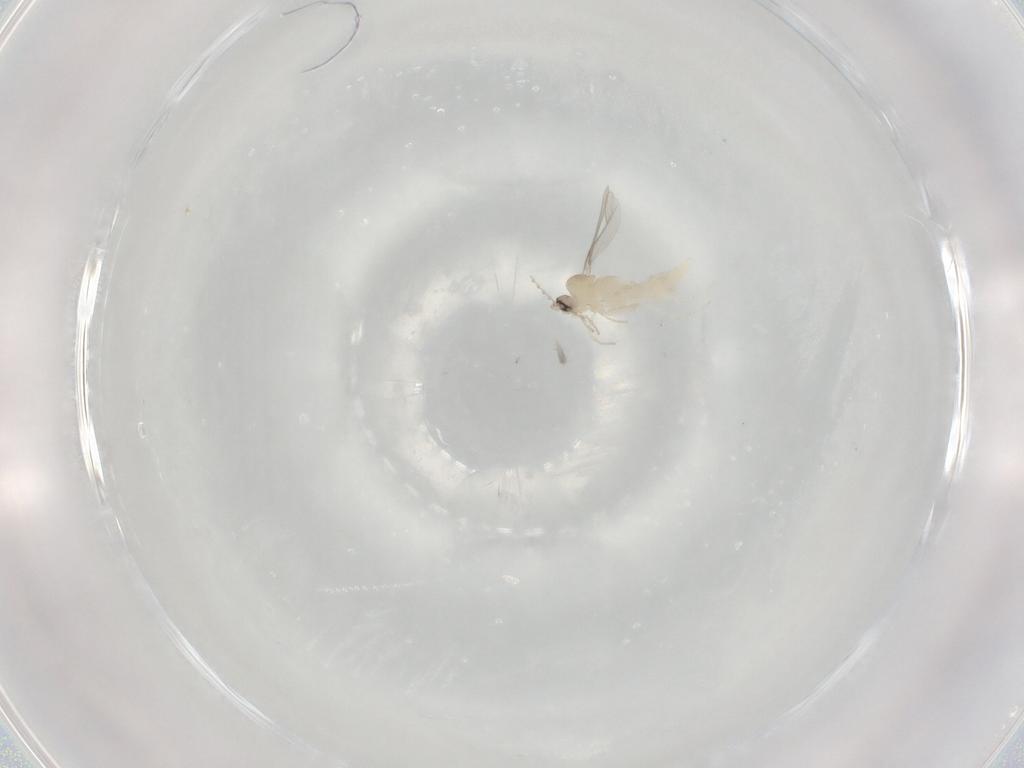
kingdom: Animalia
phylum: Arthropoda
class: Insecta
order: Diptera
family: Cecidomyiidae
